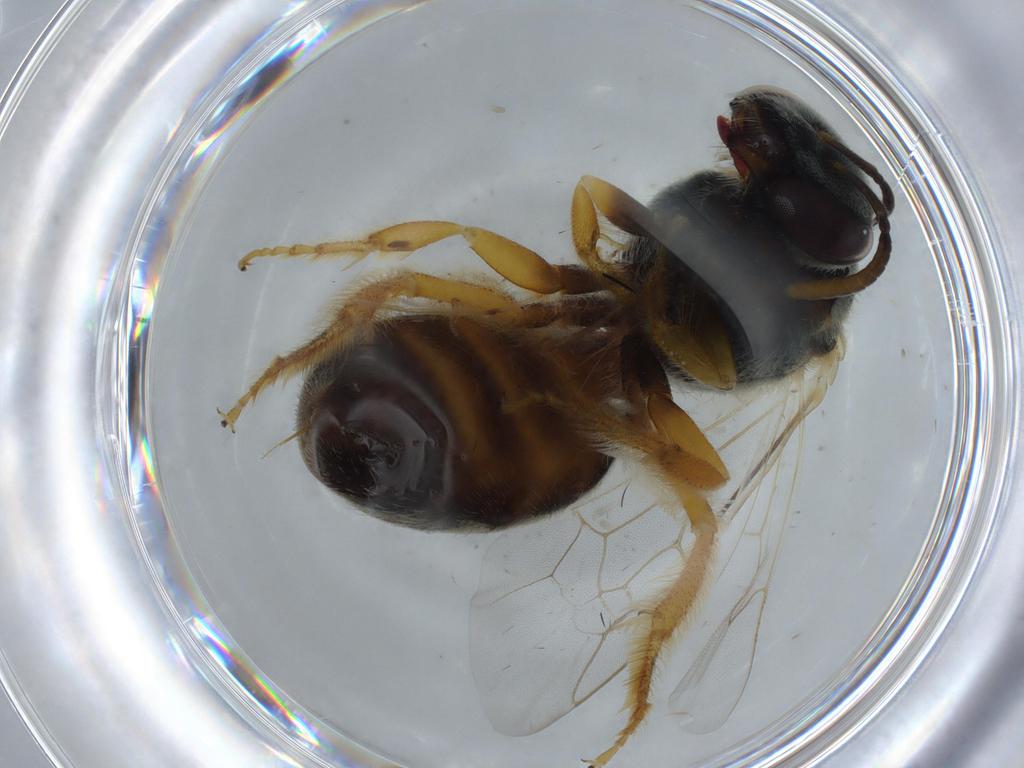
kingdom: Animalia
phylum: Arthropoda
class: Insecta
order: Hymenoptera
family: Halictidae
